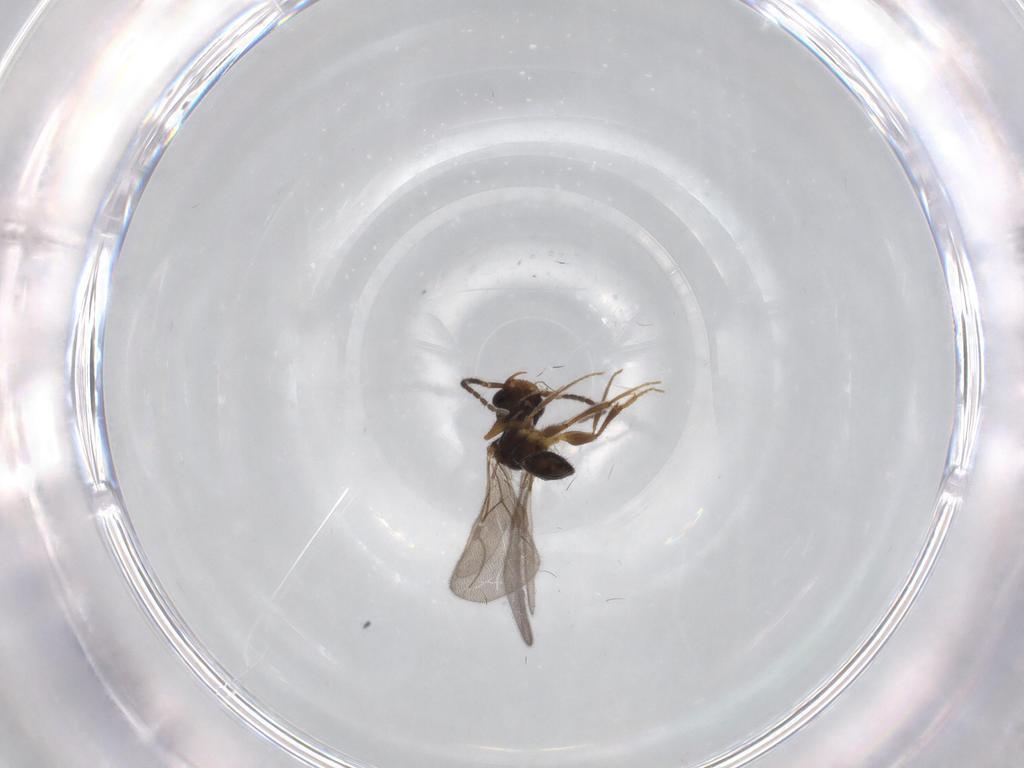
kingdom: Animalia
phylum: Arthropoda
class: Insecta
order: Hymenoptera
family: Bethylidae
